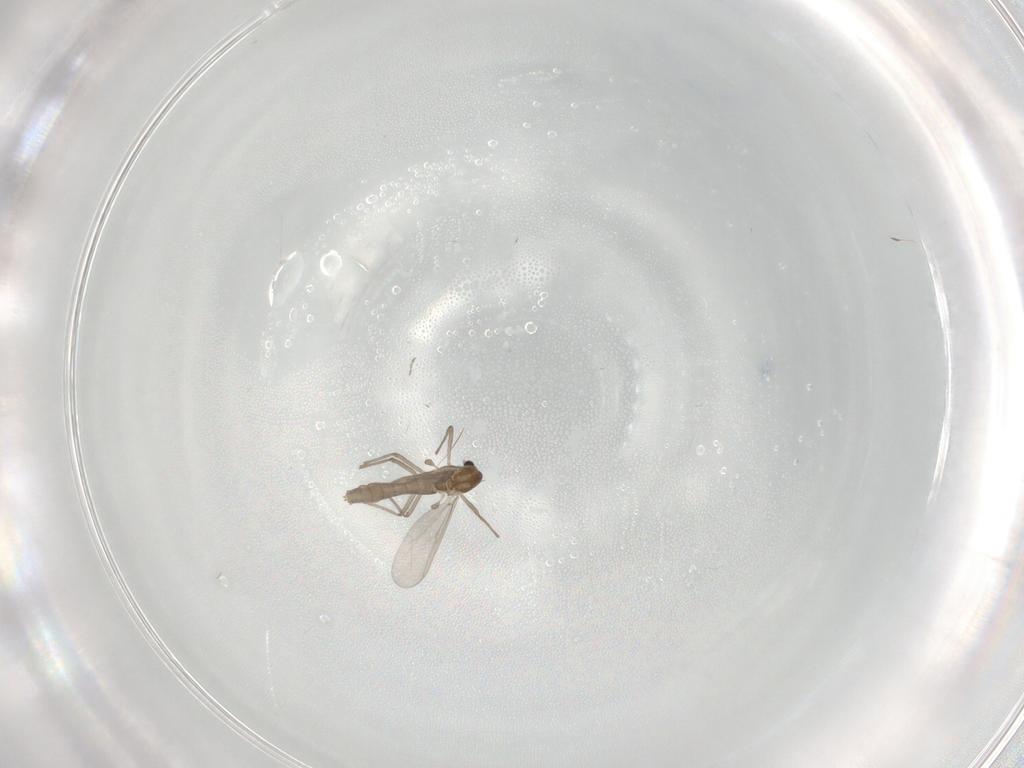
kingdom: Animalia
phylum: Arthropoda
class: Insecta
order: Diptera
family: Chironomidae
